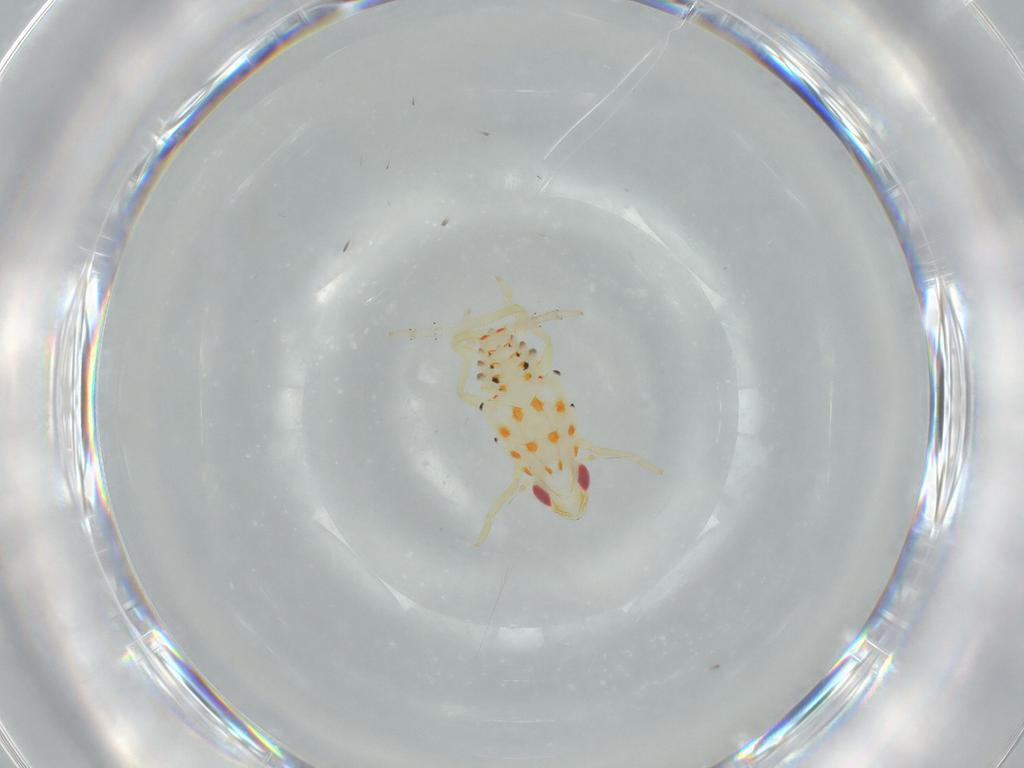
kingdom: Animalia
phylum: Arthropoda
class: Insecta
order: Hemiptera
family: Tropiduchidae
